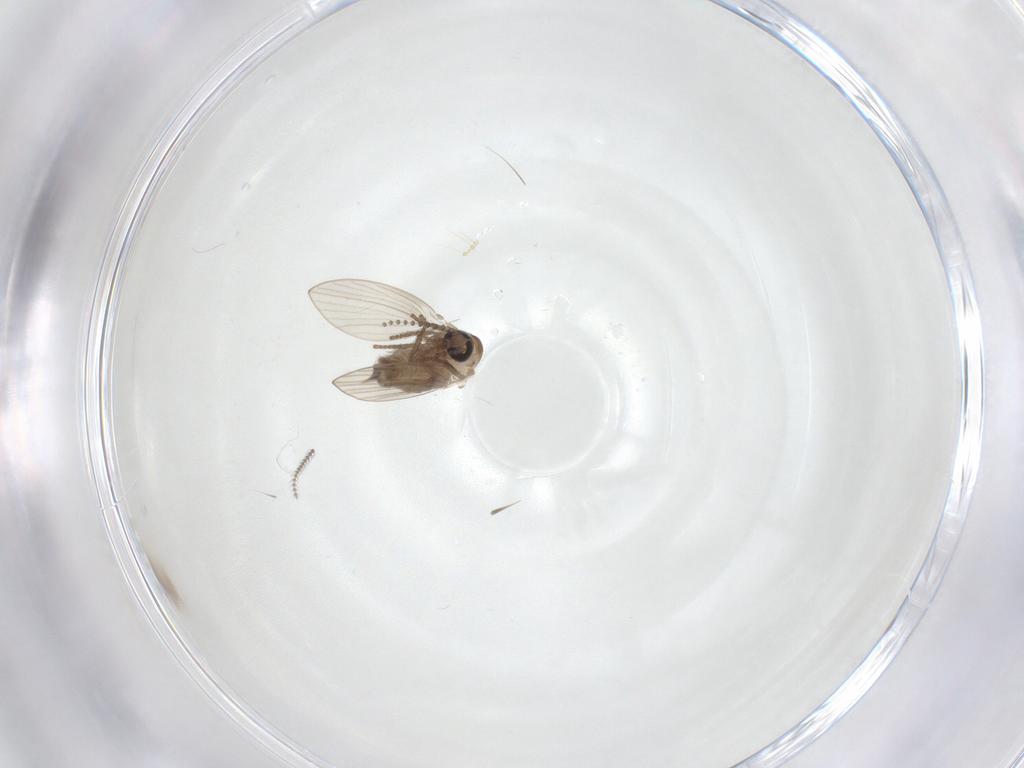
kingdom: Animalia
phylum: Arthropoda
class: Insecta
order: Diptera
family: Psychodidae
